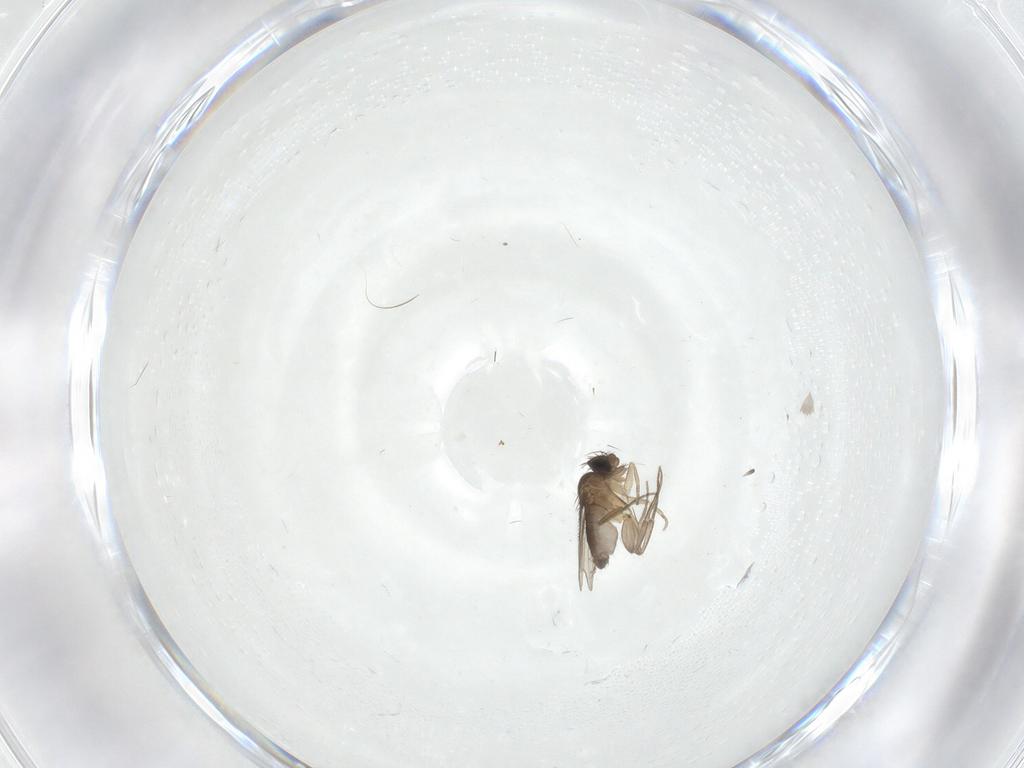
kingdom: Animalia
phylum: Arthropoda
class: Insecta
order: Diptera
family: Phoridae
